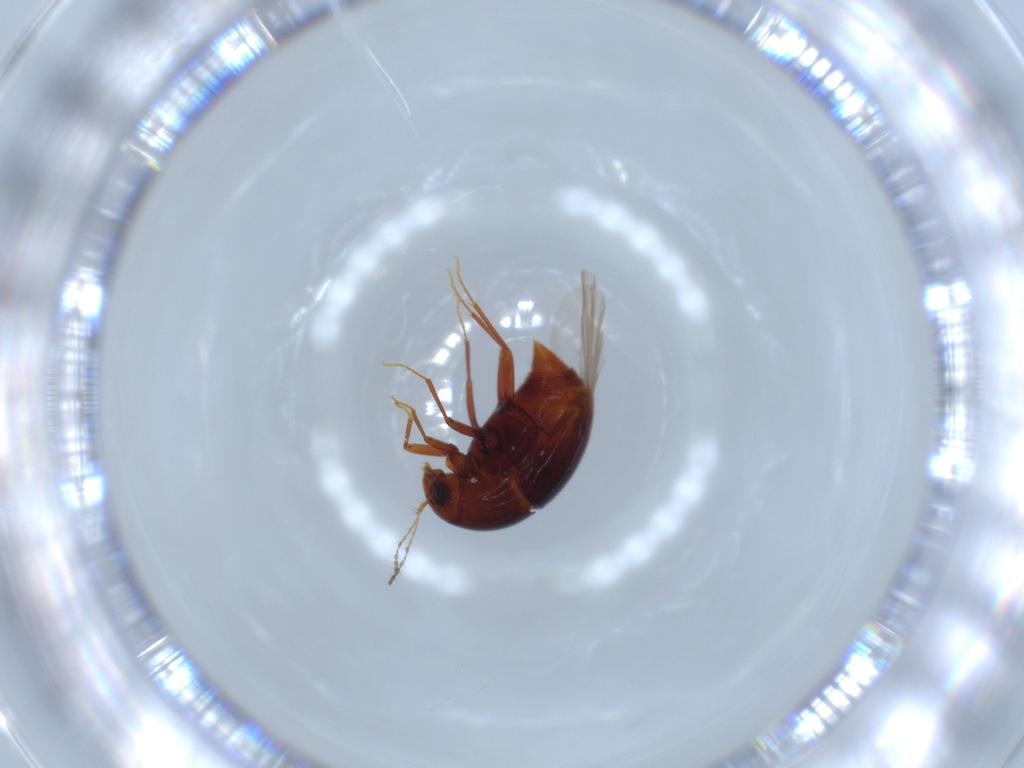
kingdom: Animalia
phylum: Arthropoda
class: Insecta
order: Coleoptera
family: Staphylinidae
